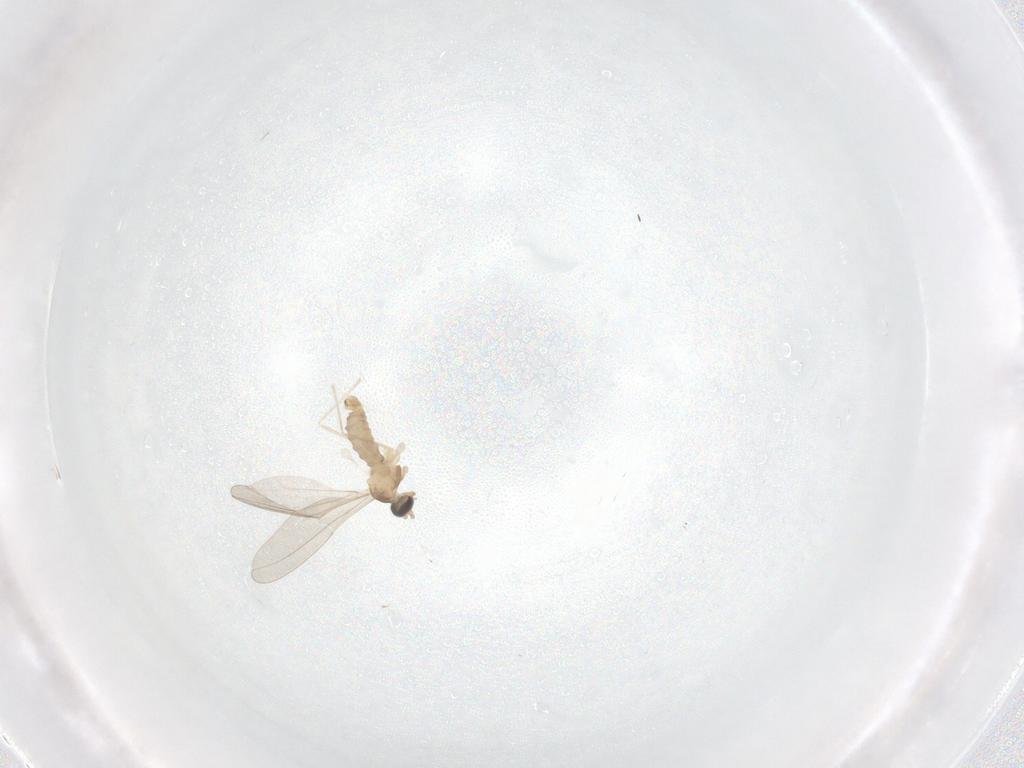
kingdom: Animalia
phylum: Arthropoda
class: Insecta
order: Diptera
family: Cecidomyiidae
